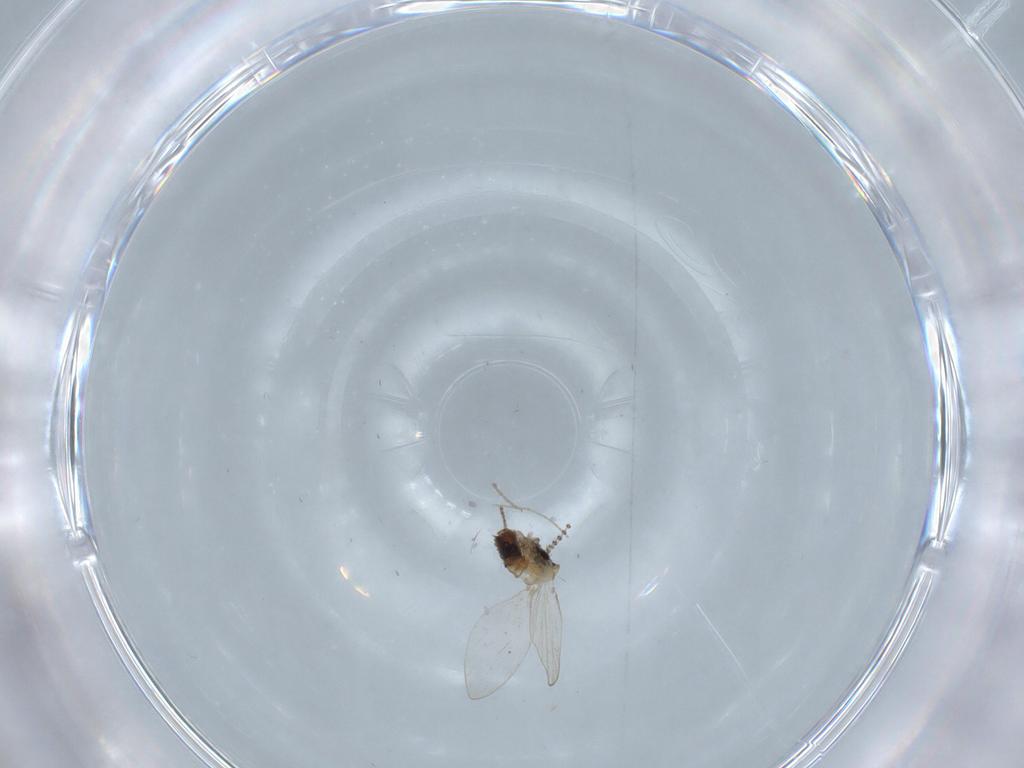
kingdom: Animalia
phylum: Arthropoda
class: Insecta
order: Diptera
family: Psychodidae
